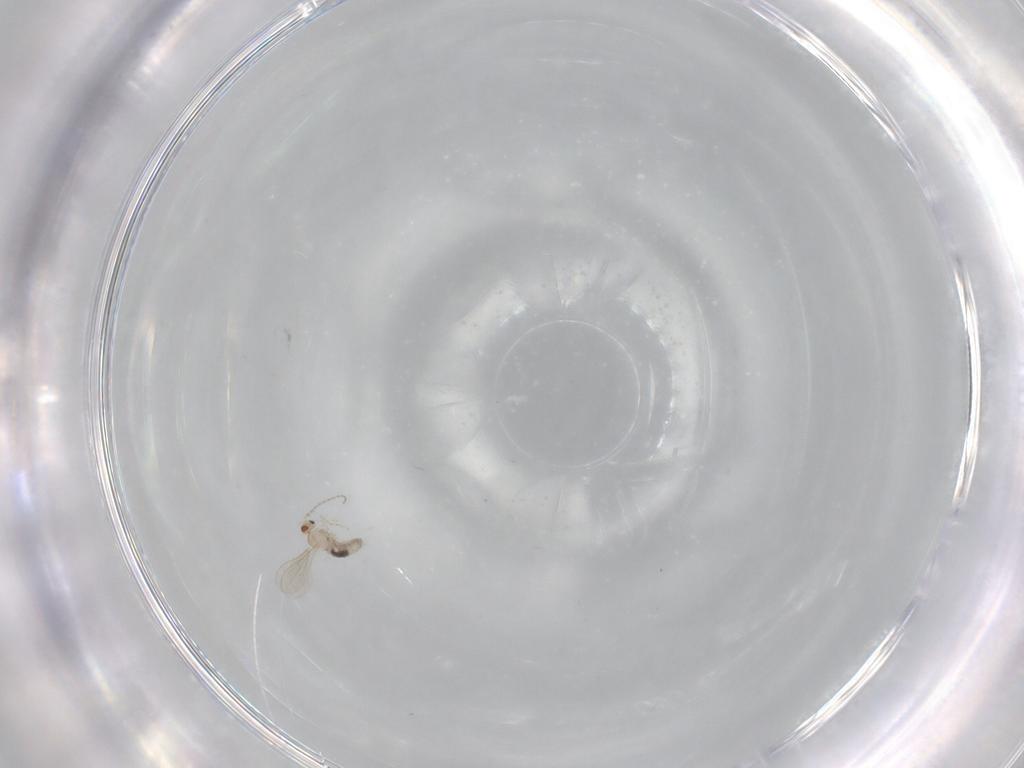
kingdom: Animalia
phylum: Arthropoda
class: Insecta
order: Diptera
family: Cecidomyiidae
